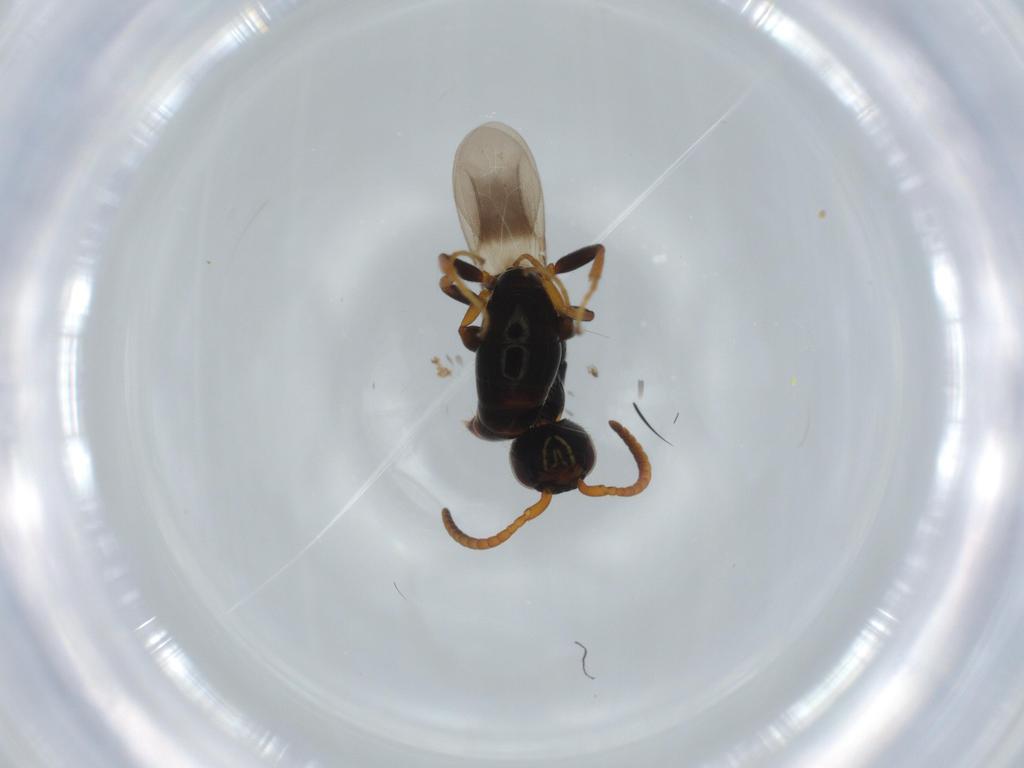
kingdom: Animalia
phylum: Arthropoda
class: Insecta
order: Hymenoptera
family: Bethylidae
